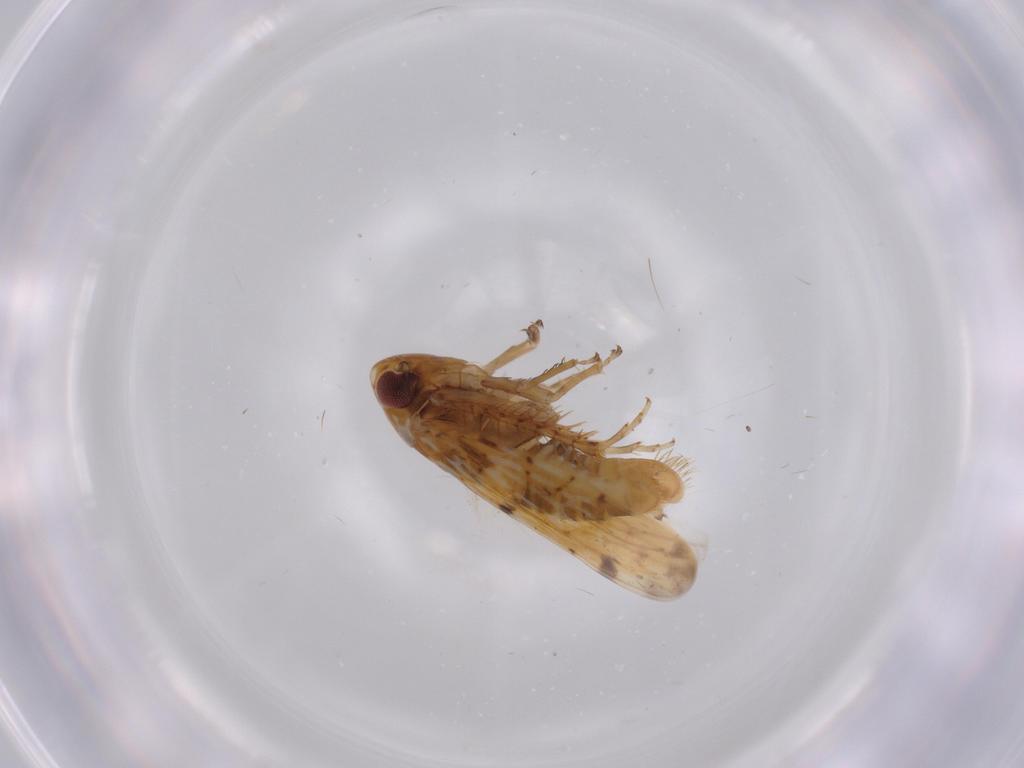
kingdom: Animalia
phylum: Arthropoda
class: Insecta
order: Hemiptera
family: Cicadellidae
